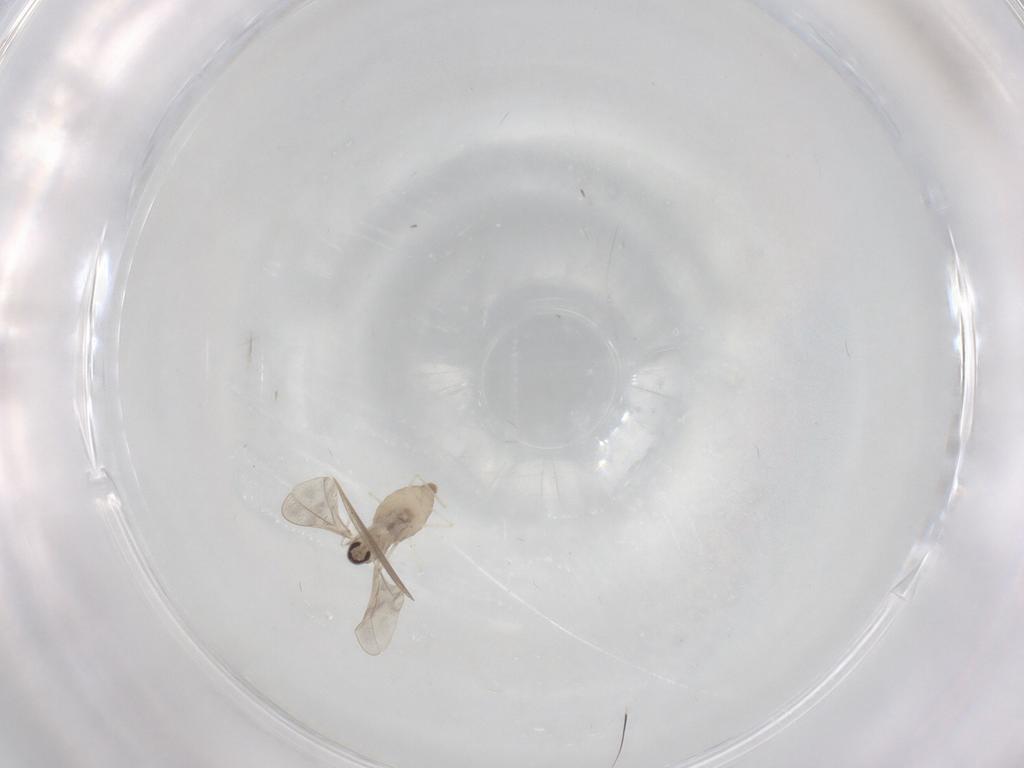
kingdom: Animalia
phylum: Arthropoda
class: Insecta
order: Diptera
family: Cecidomyiidae
